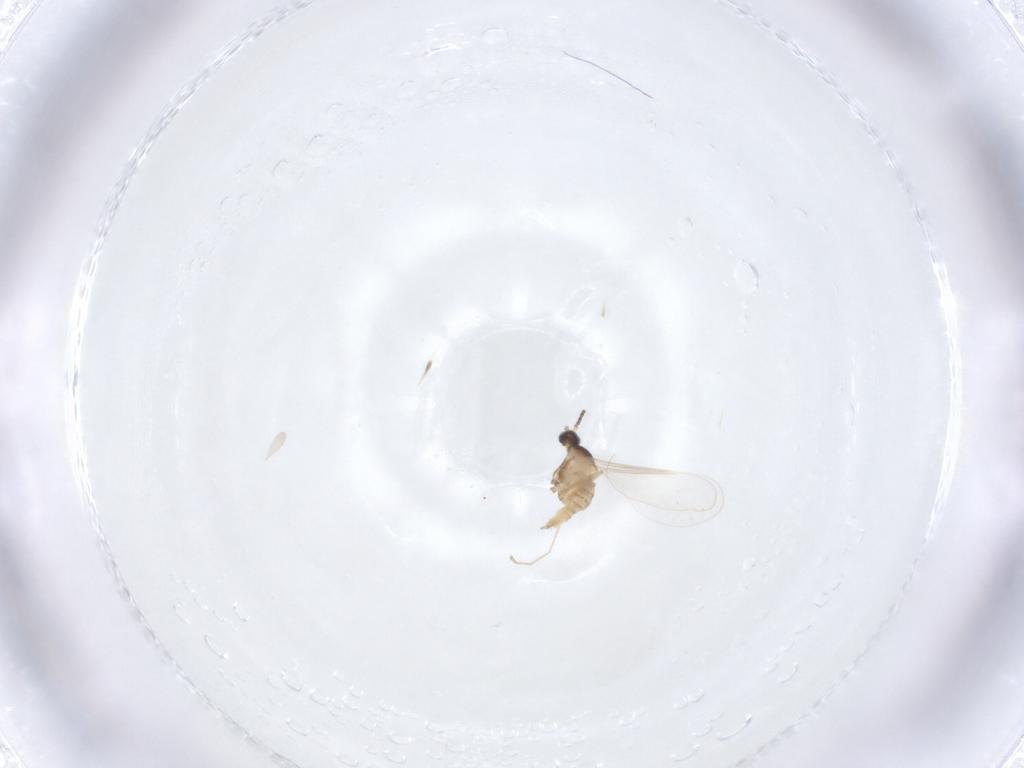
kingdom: Animalia
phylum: Arthropoda
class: Insecta
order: Diptera
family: Cecidomyiidae
